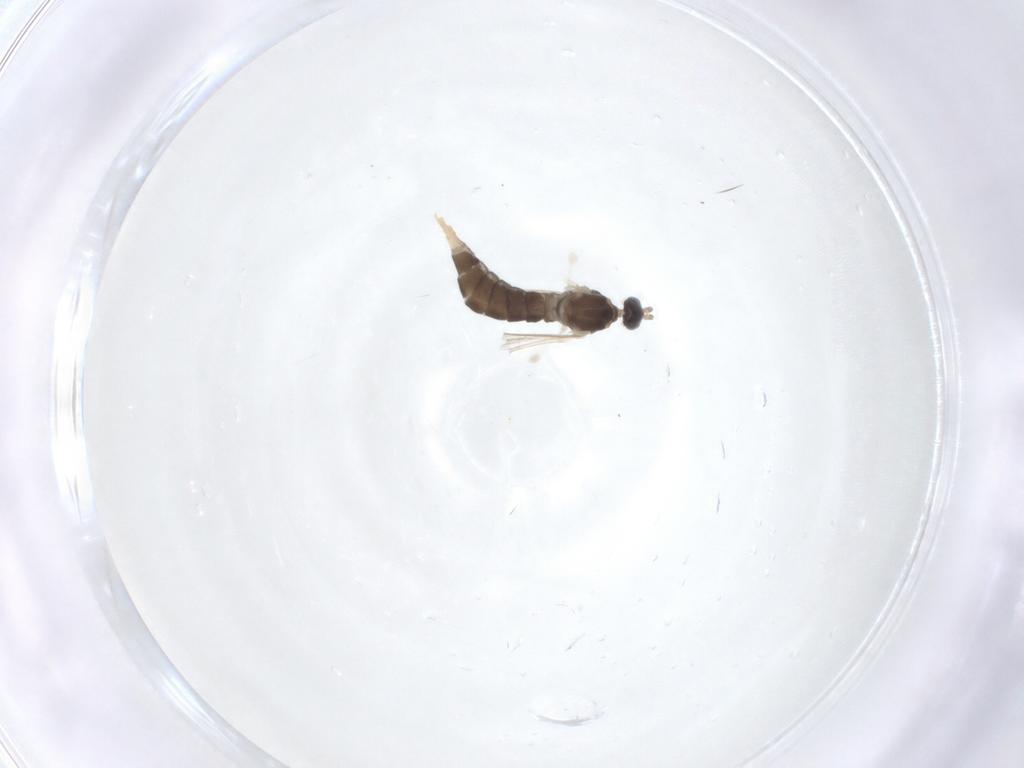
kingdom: Animalia
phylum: Arthropoda
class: Insecta
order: Diptera
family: Cecidomyiidae
